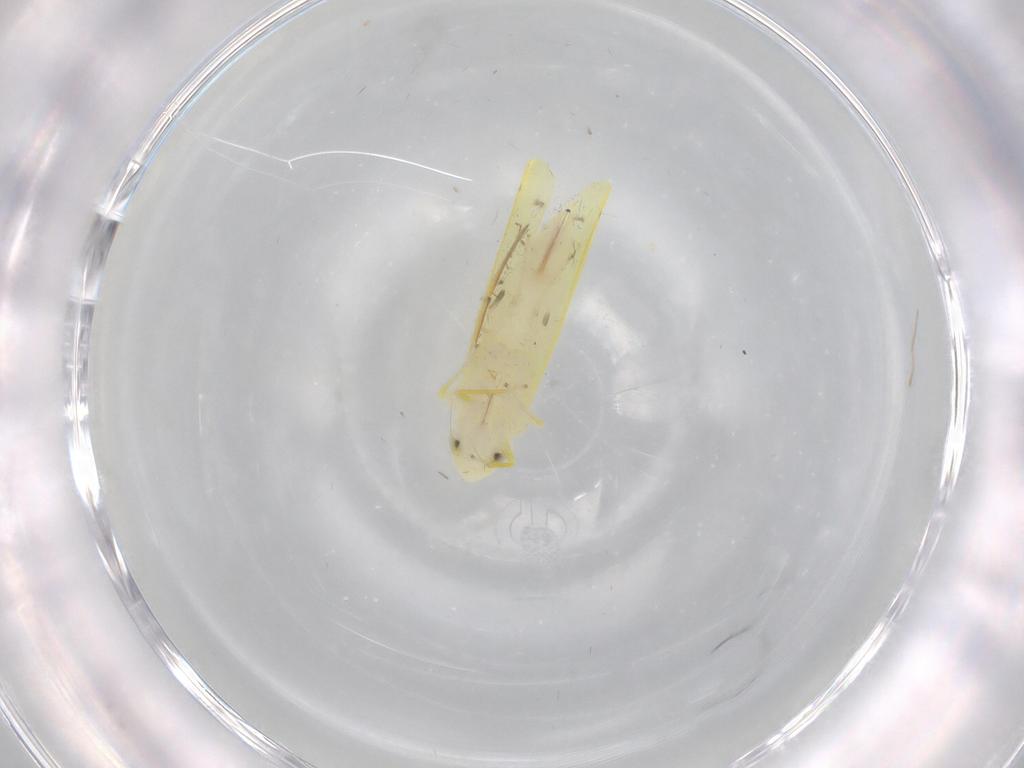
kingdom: Animalia
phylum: Arthropoda
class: Insecta
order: Hemiptera
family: Cicadellidae
